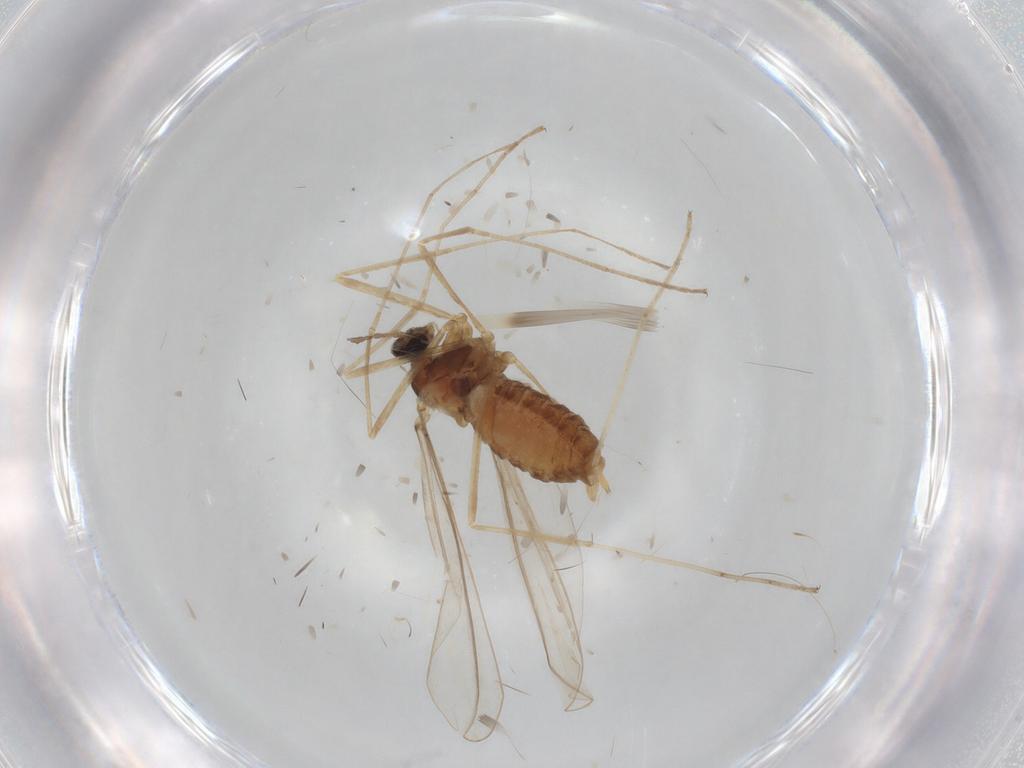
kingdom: Animalia
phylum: Arthropoda
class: Insecta
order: Diptera
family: Cecidomyiidae
